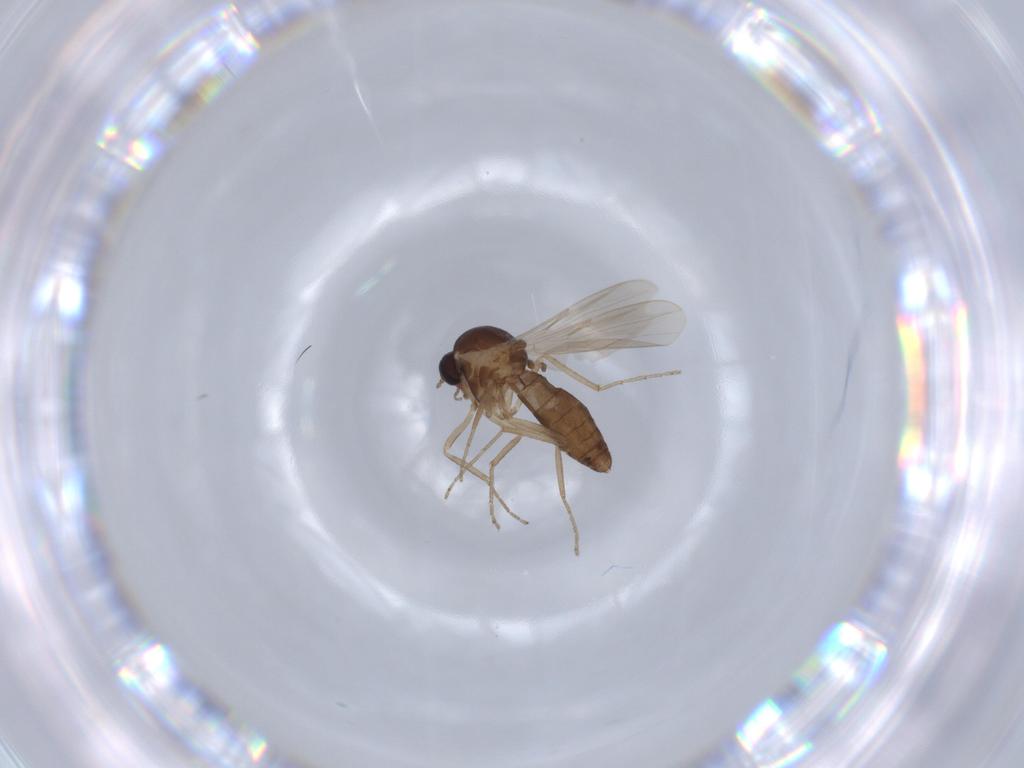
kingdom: Animalia
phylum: Arthropoda
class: Insecta
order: Diptera
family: Ceratopogonidae
